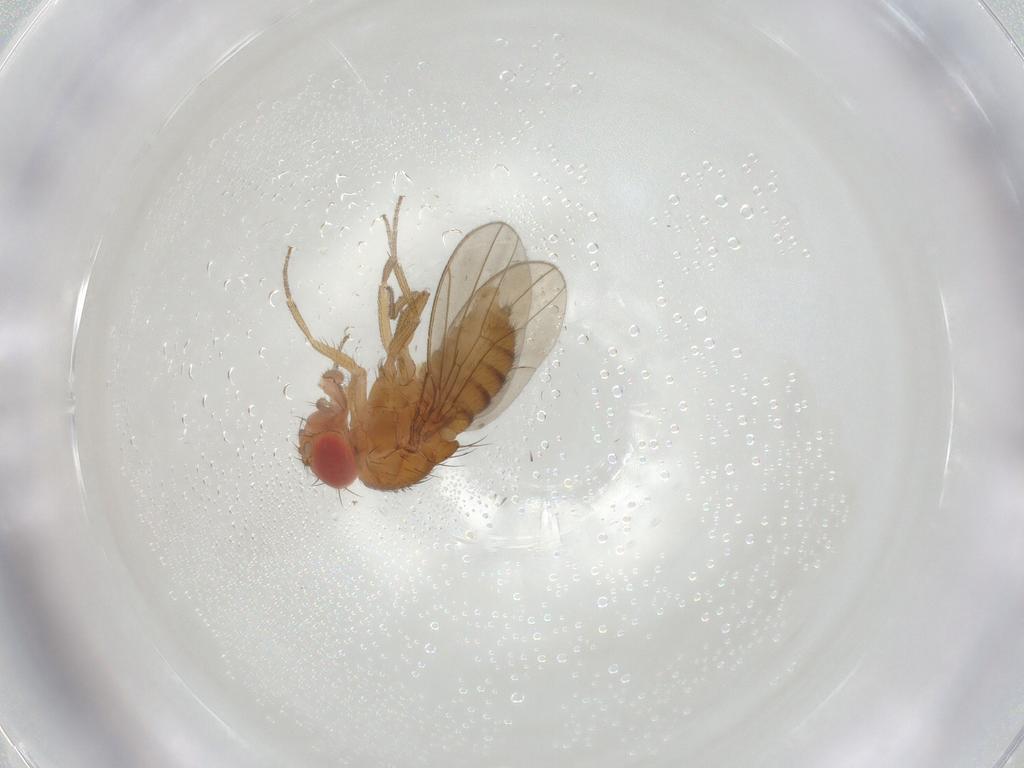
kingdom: Animalia
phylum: Arthropoda
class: Insecta
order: Diptera
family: Drosophilidae
